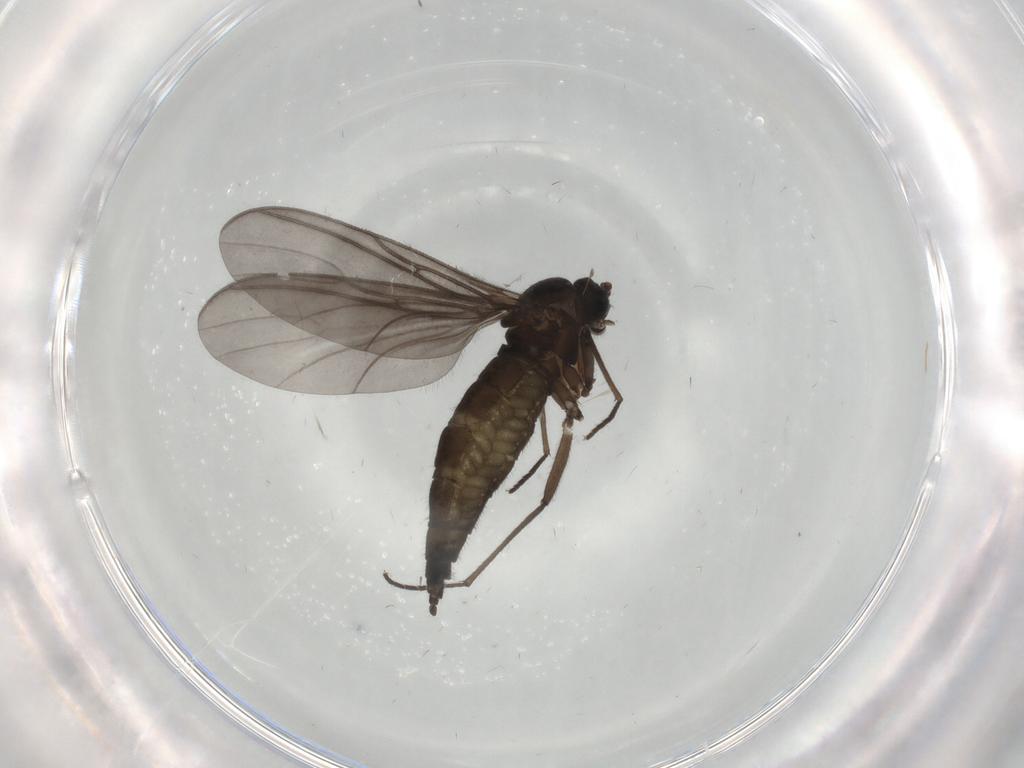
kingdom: Animalia
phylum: Arthropoda
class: Insecta
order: Diptera
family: Sciaridae
